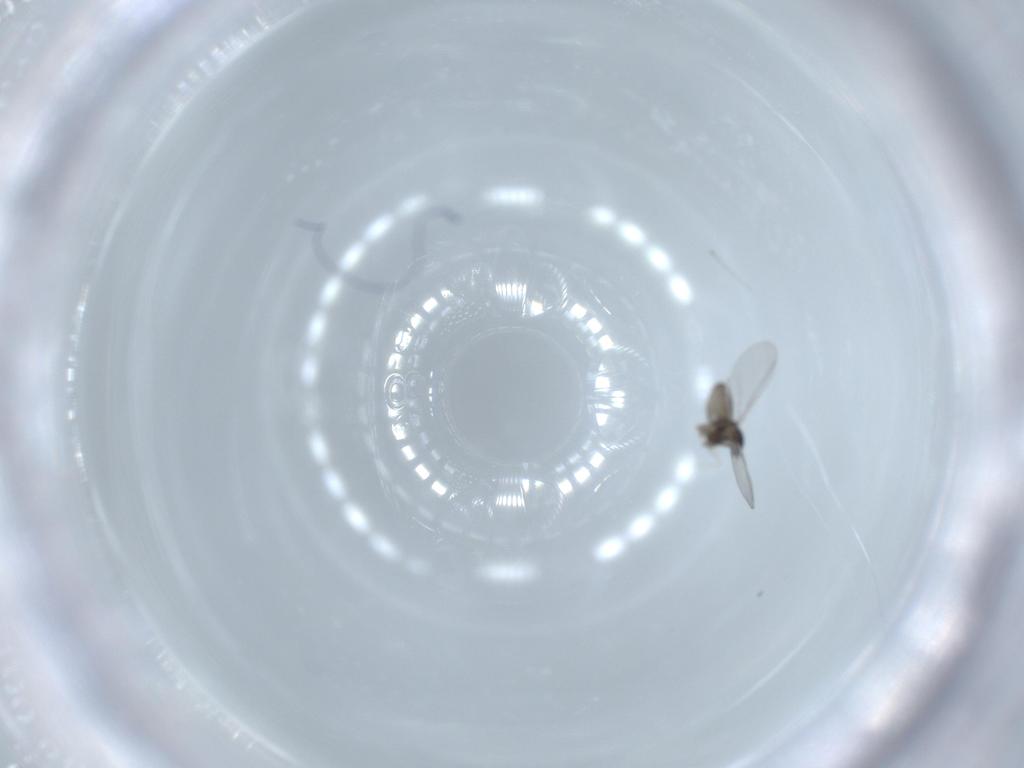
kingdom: Animalia
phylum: Arthropoda
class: Insecta
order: Diptera
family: Cecidomyiidae
